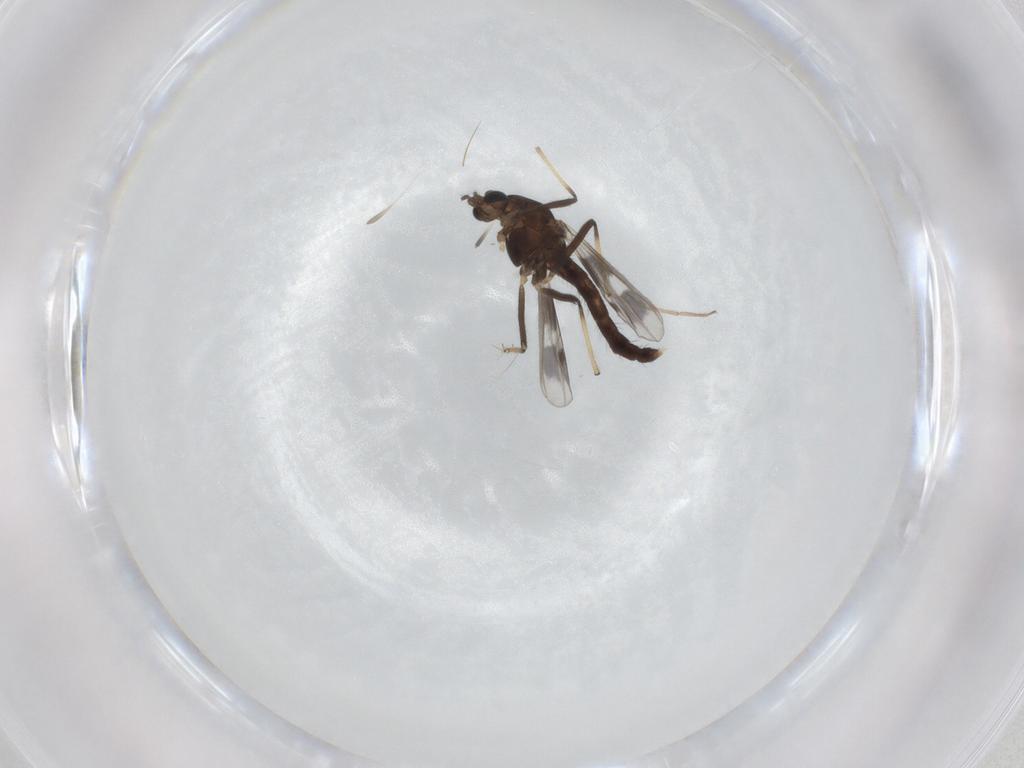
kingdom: Animalia
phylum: Arthropoda
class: Insecta
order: Diptera
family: Chironomidae
